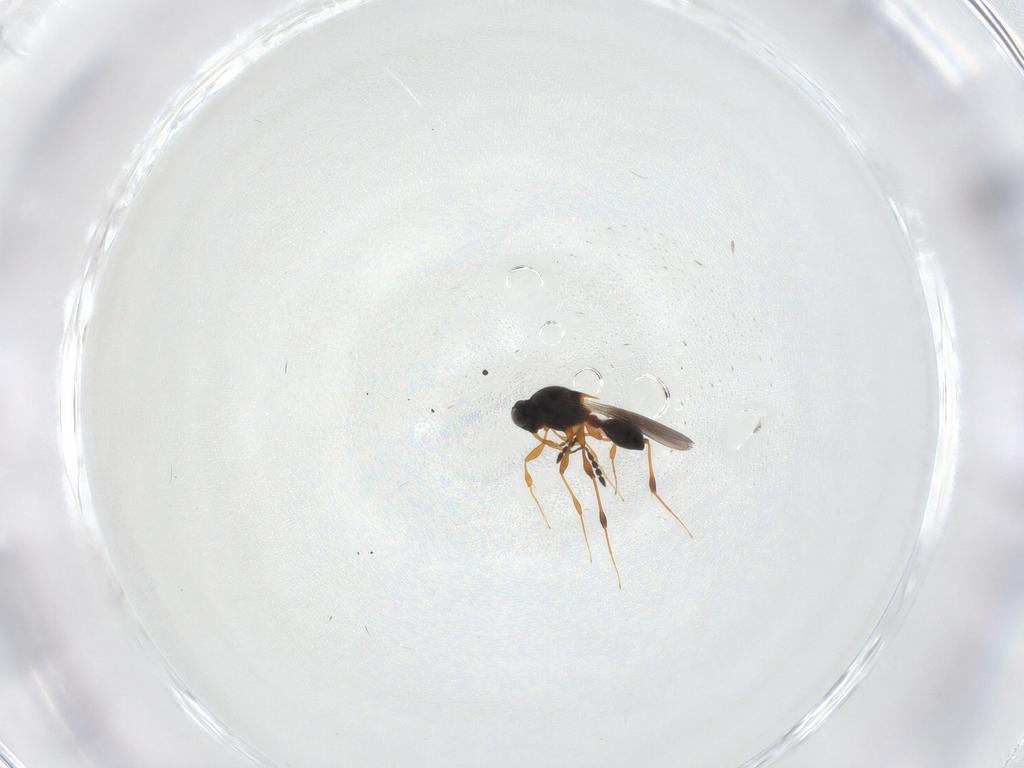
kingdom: Animalia
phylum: Arthropoda
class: Insecta
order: Hymenoptera
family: Platygastridae
